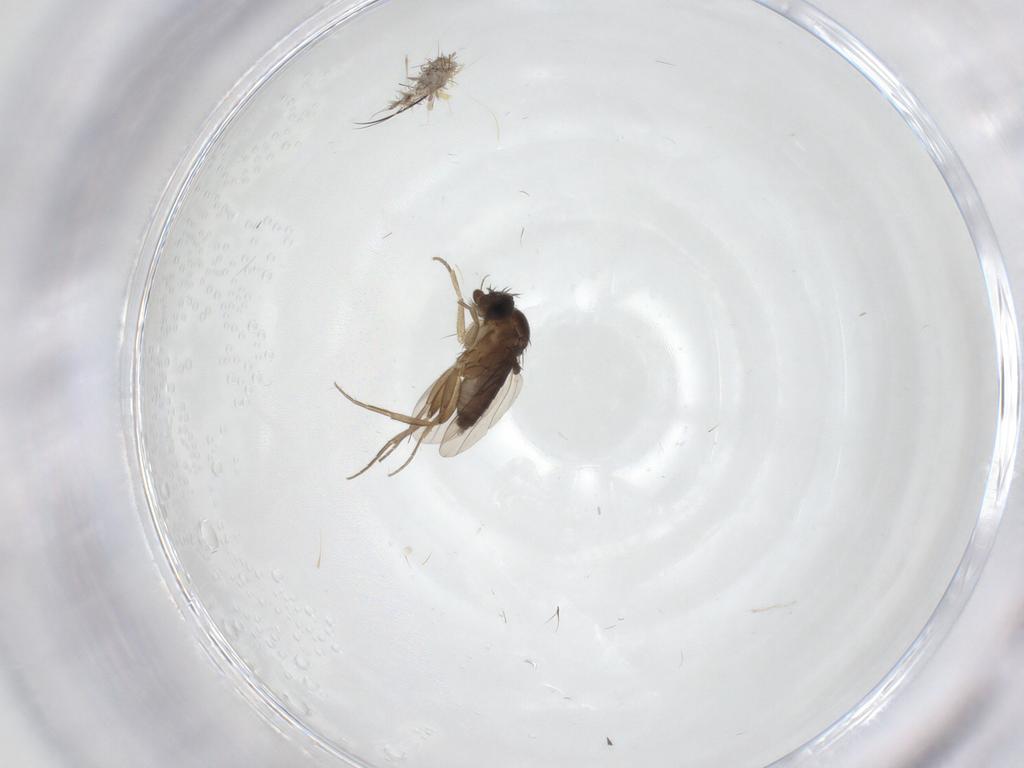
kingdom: Animalia
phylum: Arthropoda
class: Insecta
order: Diptera
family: Phoridae
